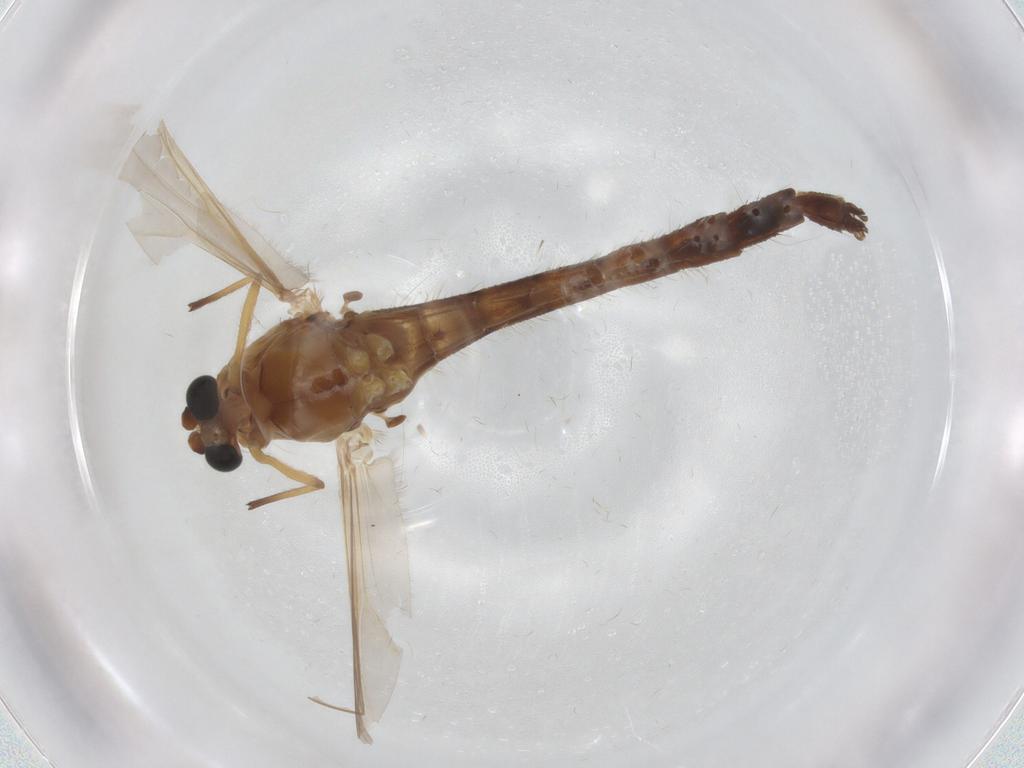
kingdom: Animalia
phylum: Arthropoda
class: Insecta
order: Diptera
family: Chironomidae
